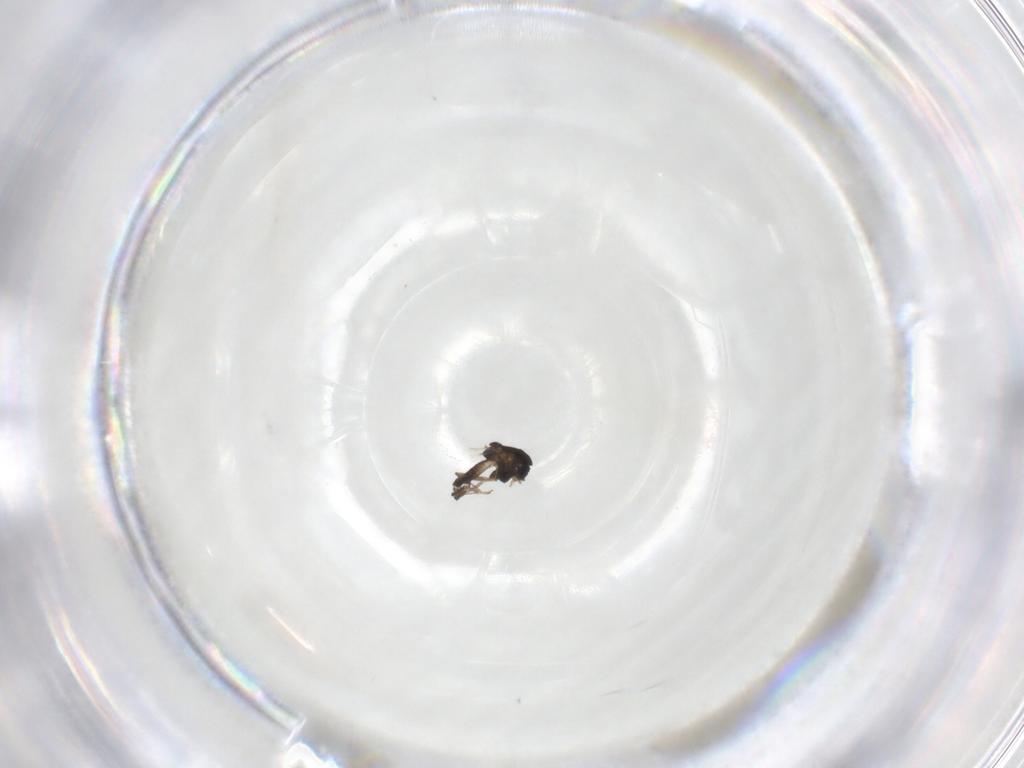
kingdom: Animalia
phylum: Arthropoda
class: Insecta
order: Diptera
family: Chironomidae
